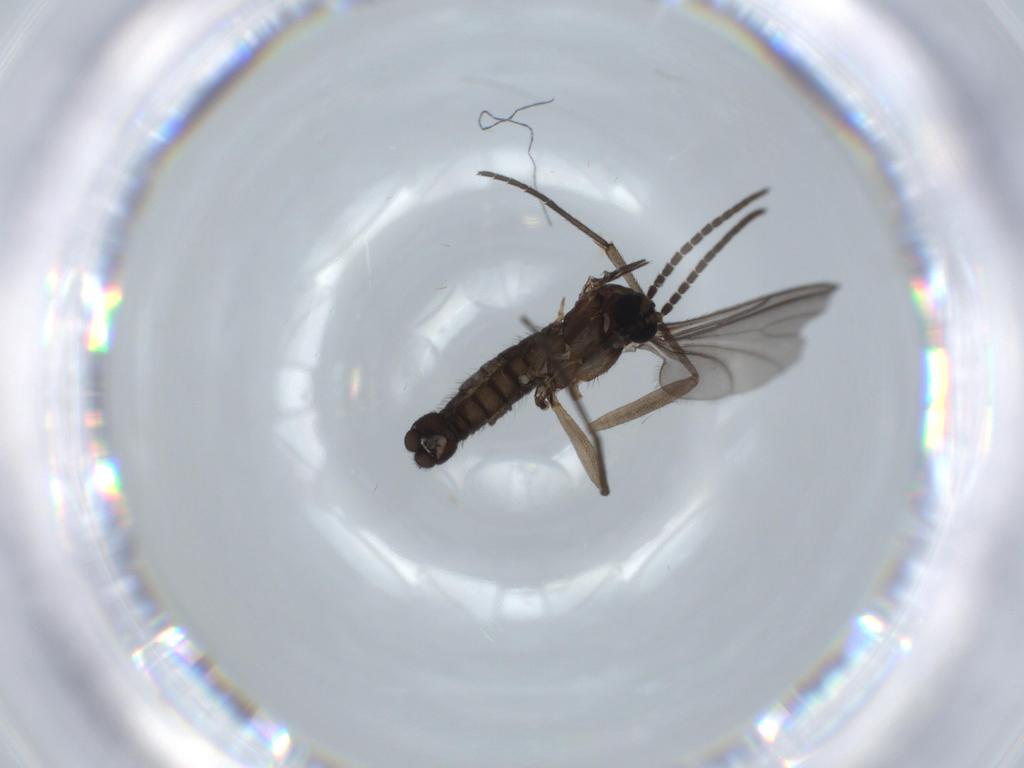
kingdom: Animalia
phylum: Arthropoda
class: Insecta
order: Diptera
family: Sciaridae
